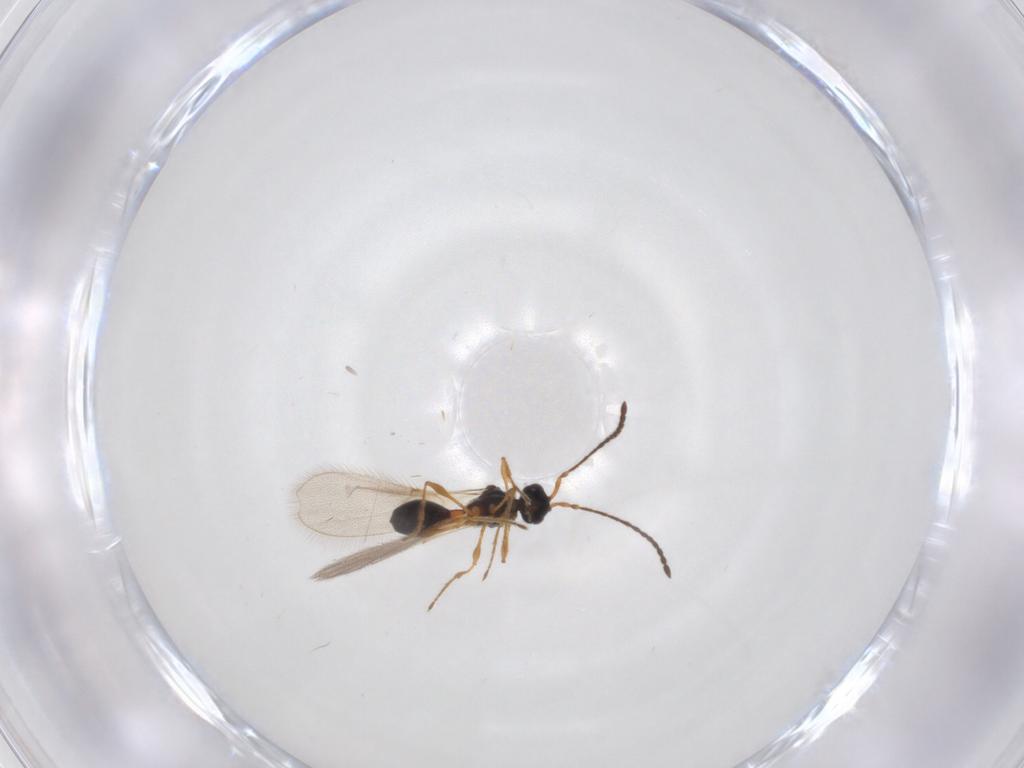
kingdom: Animalia
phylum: Arthropoda
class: Insecta
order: Hymenoptera
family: Diapriidae
